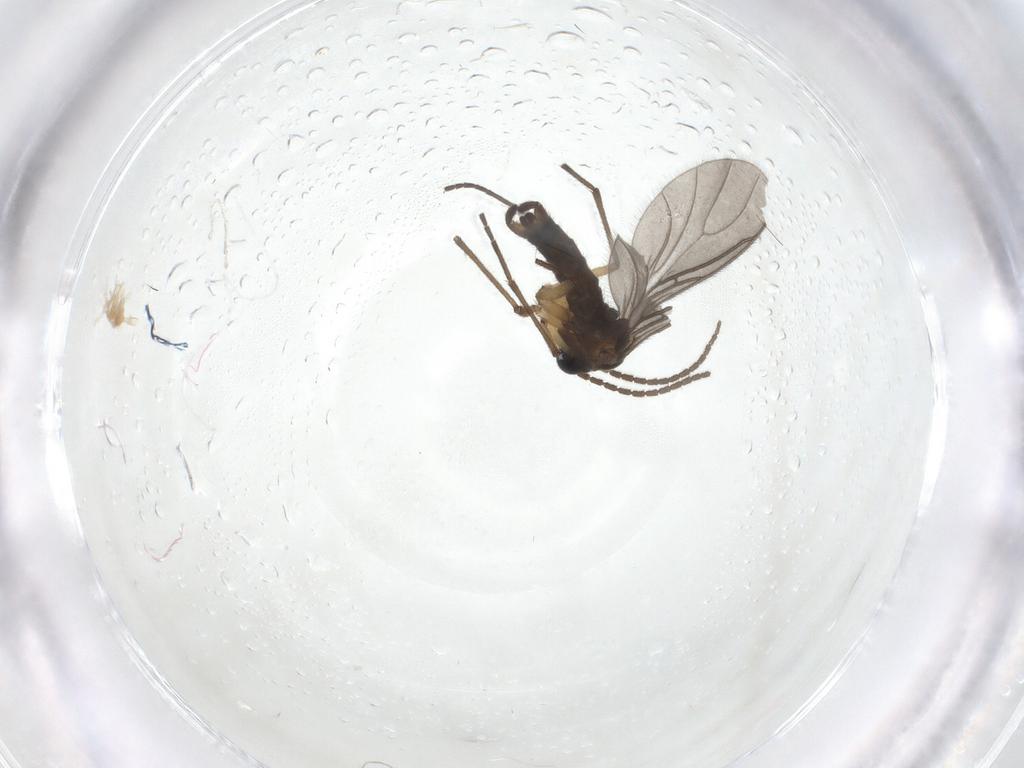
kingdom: Animalia
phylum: Arthropoda
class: Insecta
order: Diptera
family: Sciaridae
